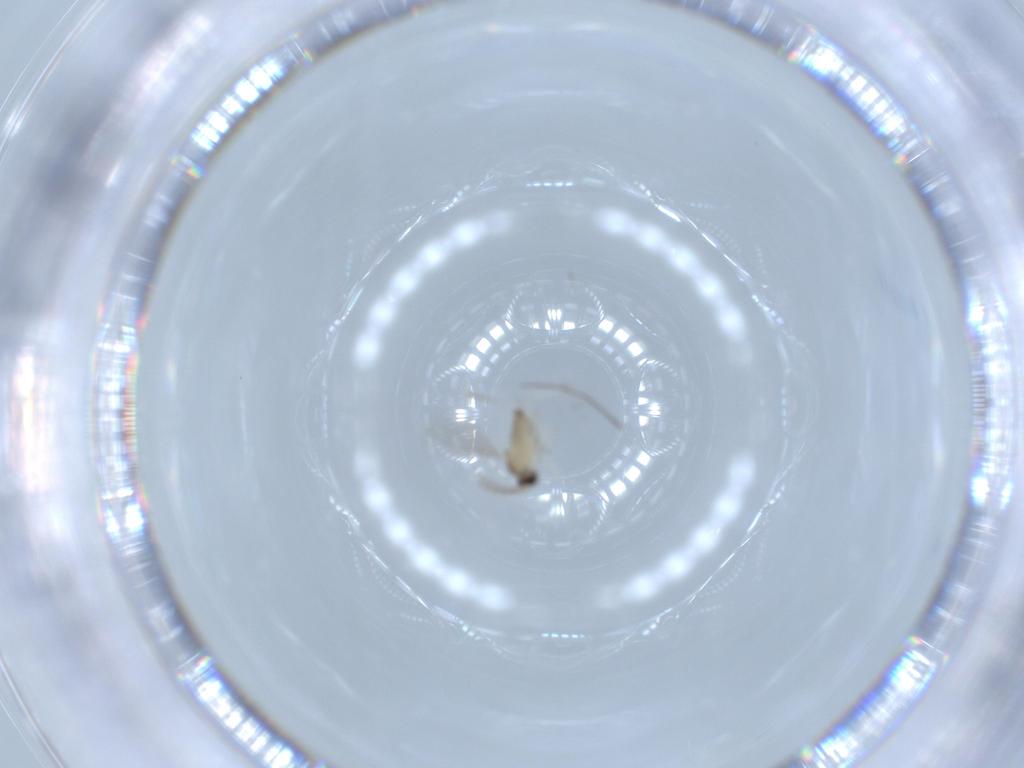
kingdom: Animalia
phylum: Arthropoda
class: Insecta
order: Diptera
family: Cecidomyiidae
